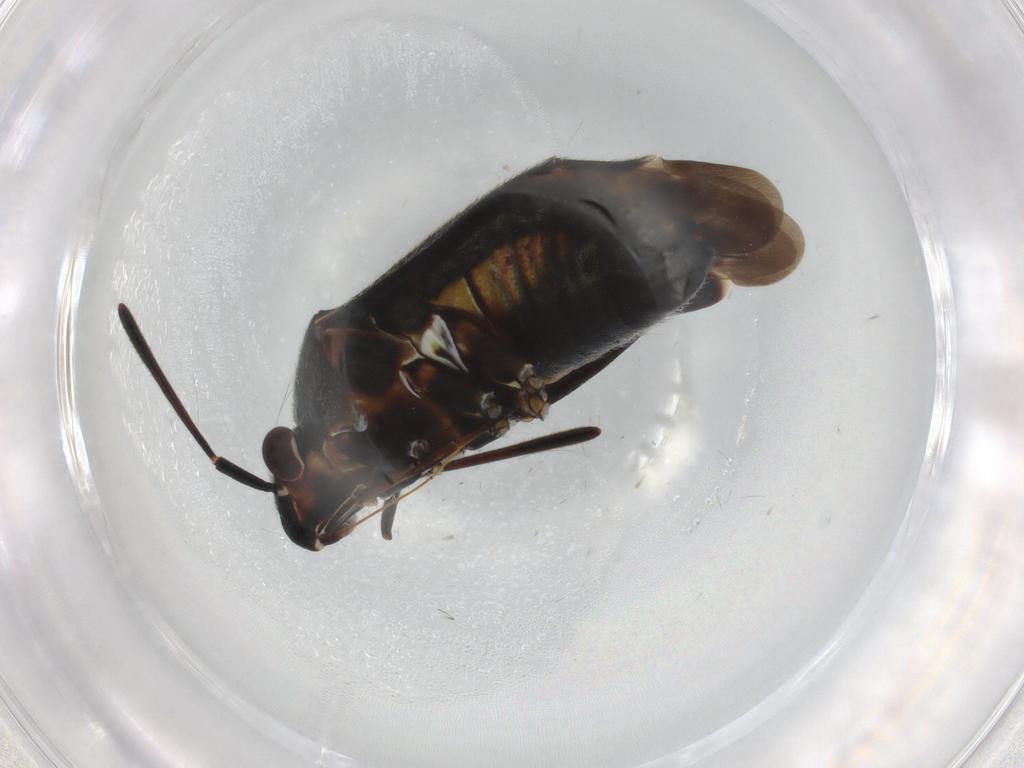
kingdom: Animalia
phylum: Arthropoda
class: Insecta
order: Hemiptera
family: Miridae
